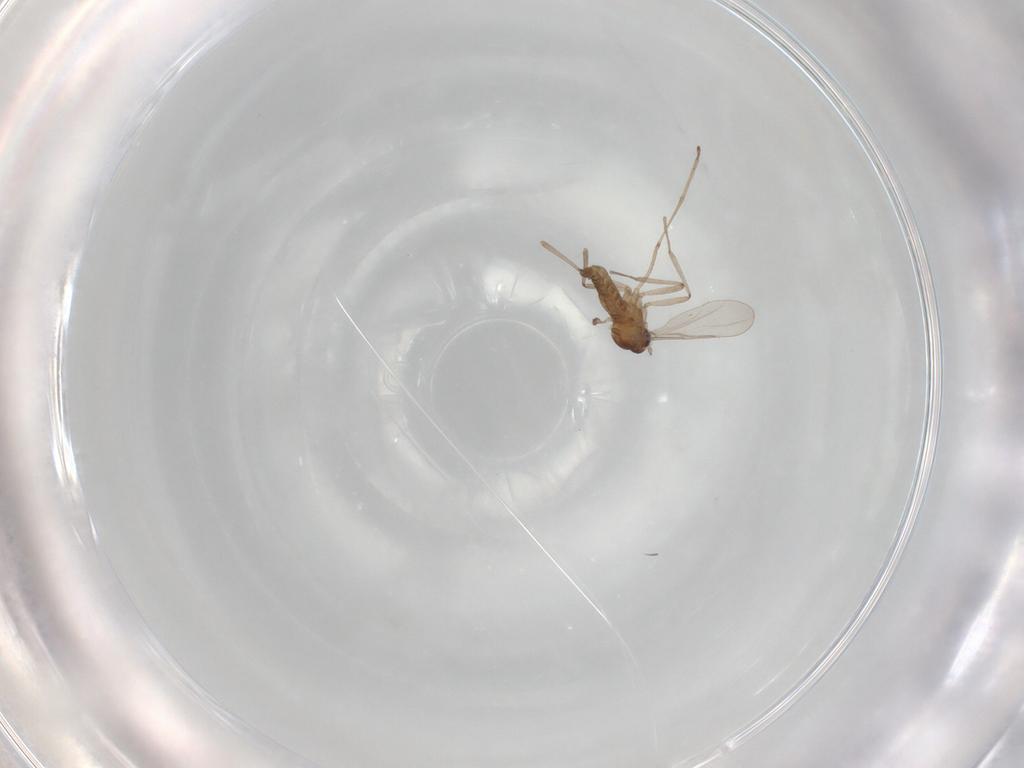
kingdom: Animalia
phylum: Arthropoda
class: Insecta
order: Diptera
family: Cecidomyiidae
